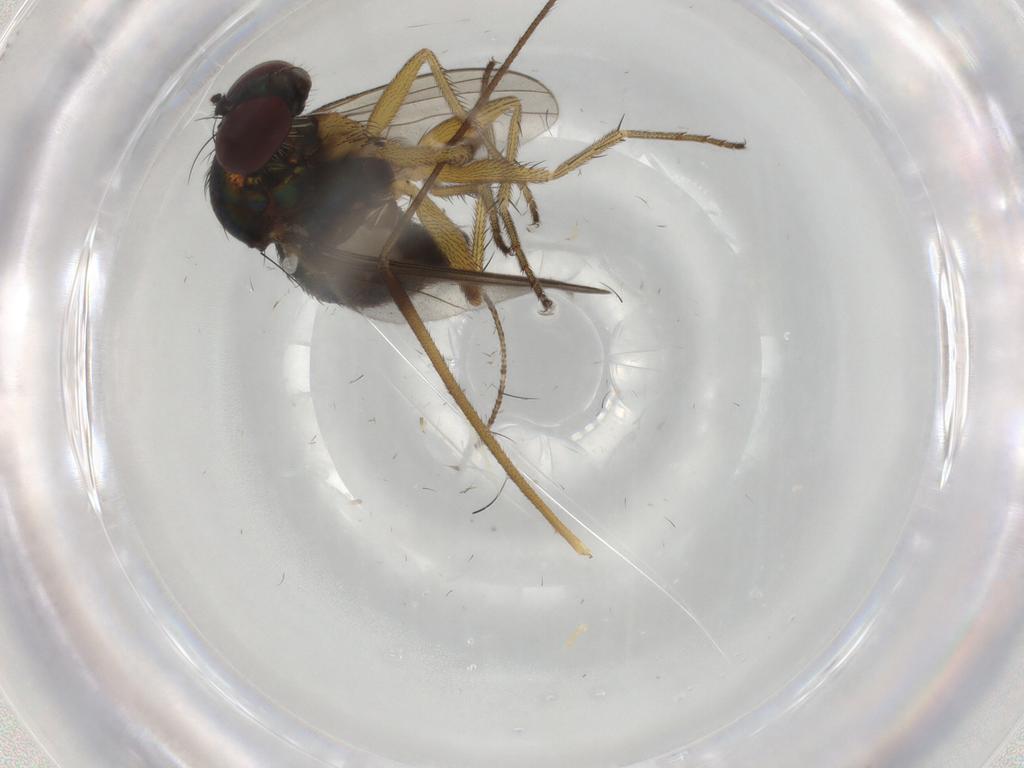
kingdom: Animalia
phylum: Arthropoda
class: Insecta
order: Diptera
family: Dolichopodidae
